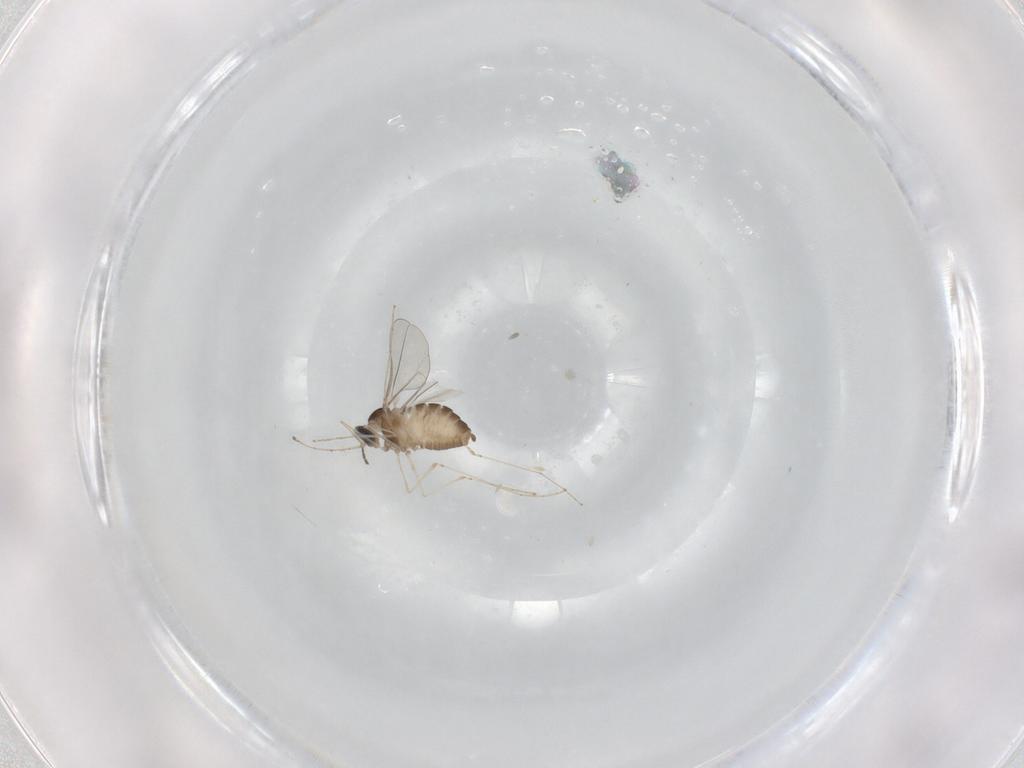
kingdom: Animalia
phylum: Arthropoda
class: Insecta
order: Diptera
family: Cecidomyiidae
